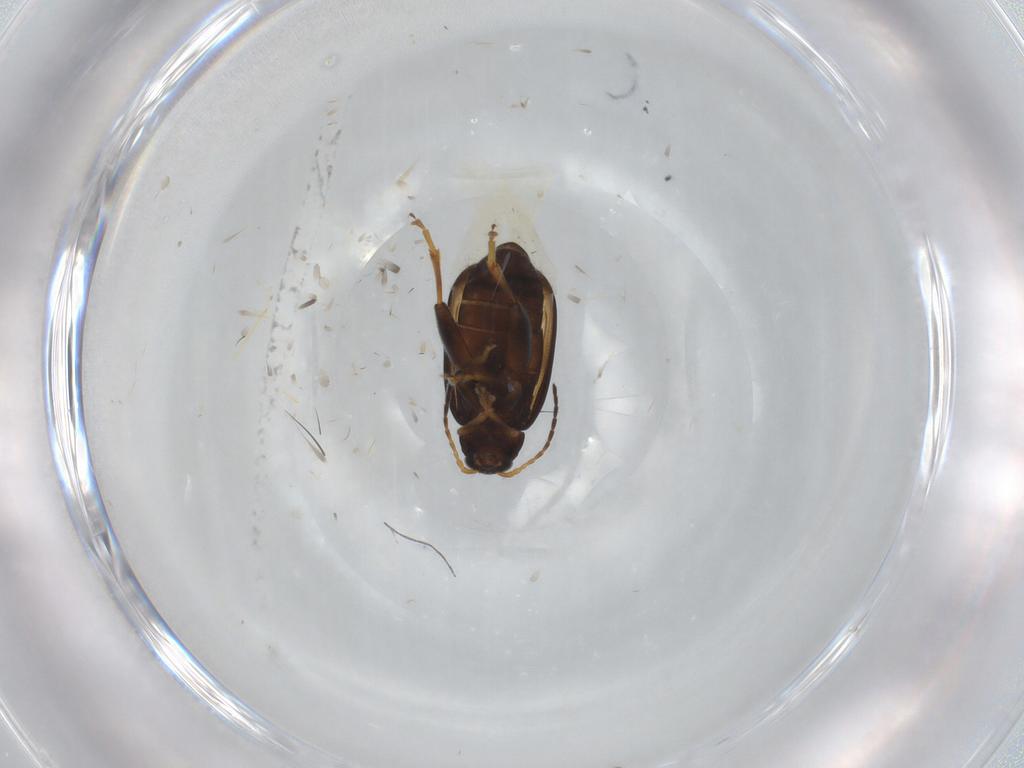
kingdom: Animalia
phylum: Arthropoda
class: Insecta
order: Coleoptera
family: Chrysomelidae
